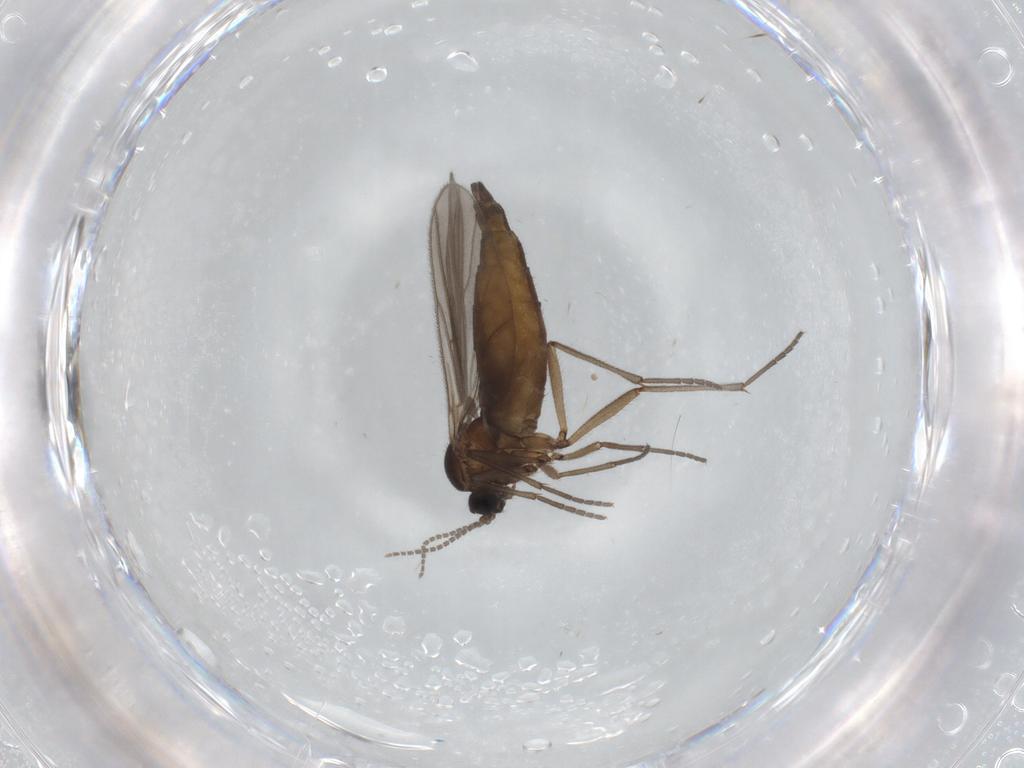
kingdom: Animalia
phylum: Arthropoda
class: Insecta
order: Diptera
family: Sciaridae
